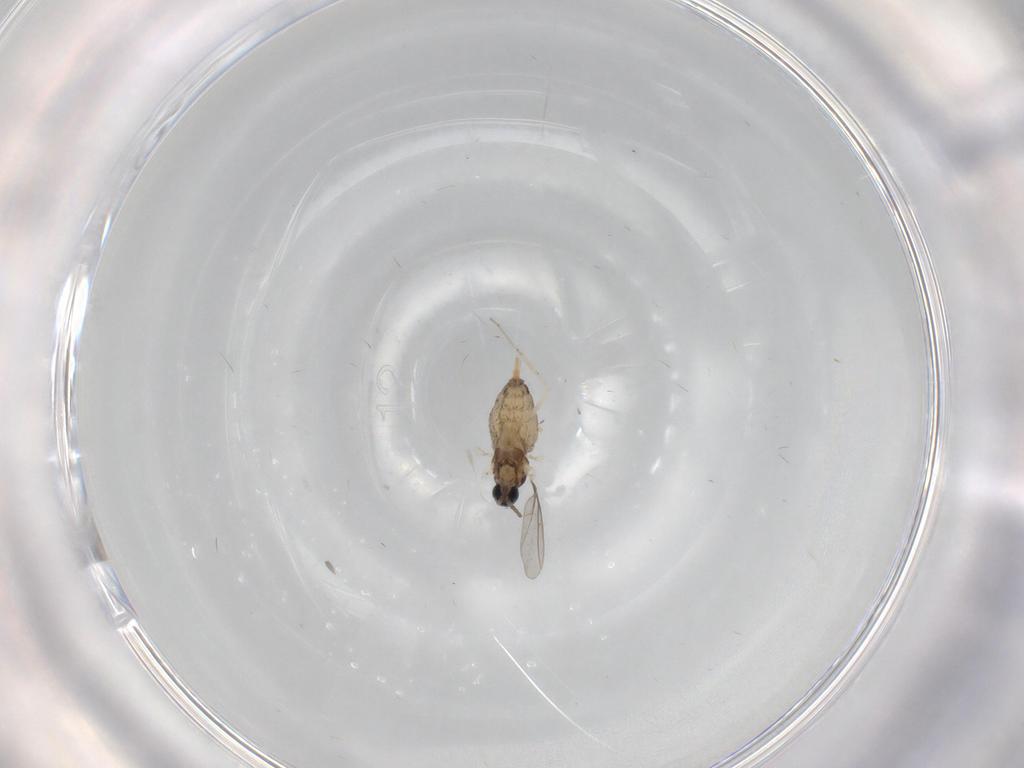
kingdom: Animalia
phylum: Arthropoda
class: Insecta
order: Diptera
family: Cecidomyiidae
